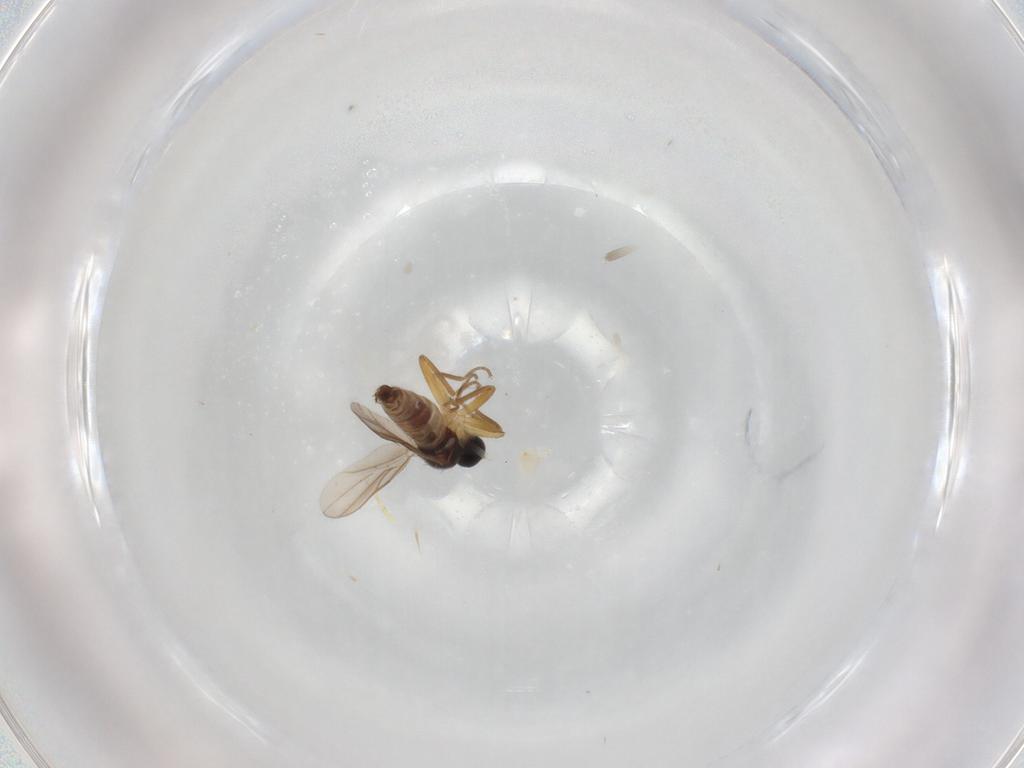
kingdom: Animalia
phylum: Arthropoda
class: Insecta
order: Diptera
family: Hybotidae
